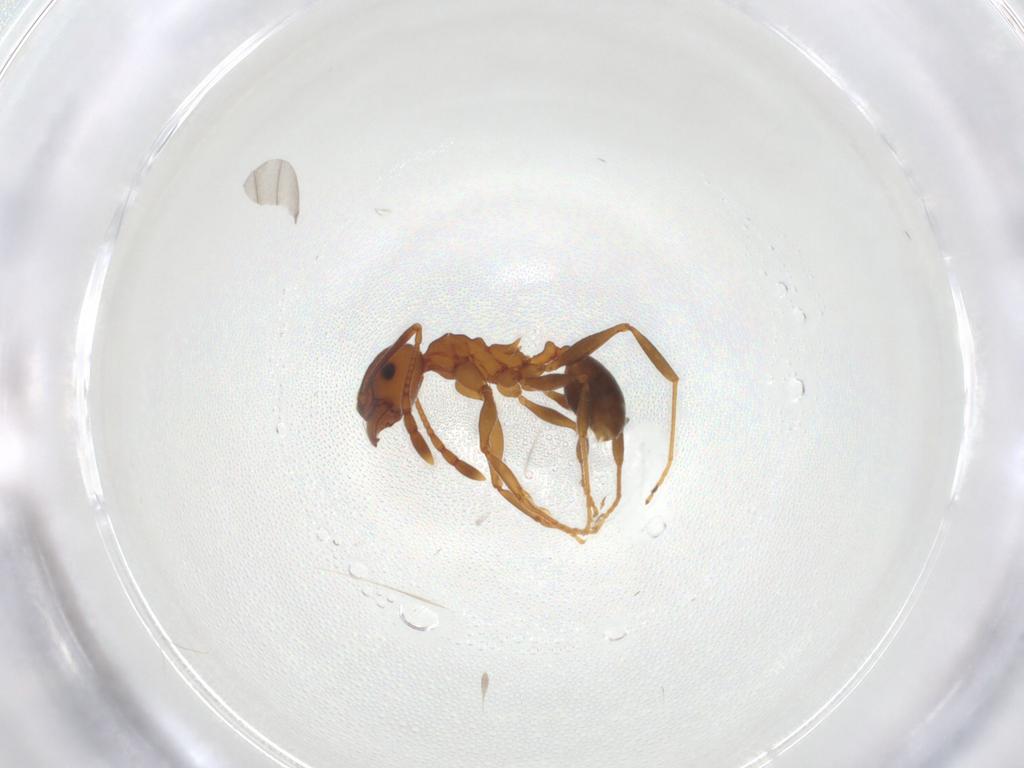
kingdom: Animalia
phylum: Arthropoda
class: Insecta
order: Hymenoptera
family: Formicidae
